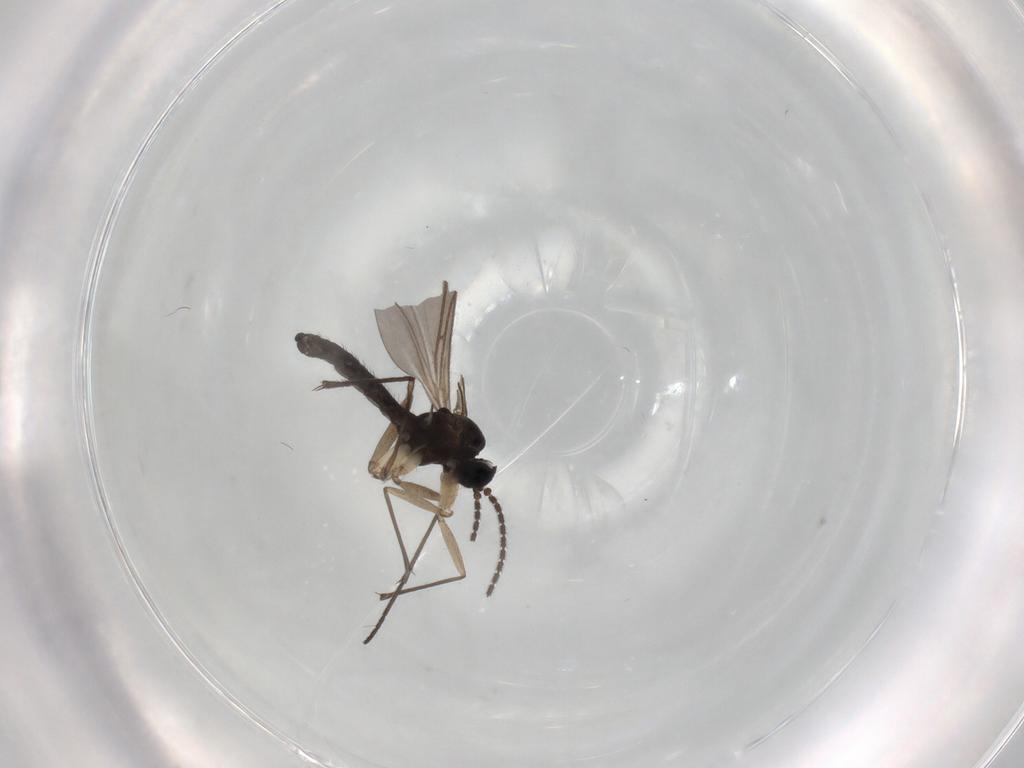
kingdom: Animalia
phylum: Arthropoda
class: Insecta
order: Diptera
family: Sciaridae
